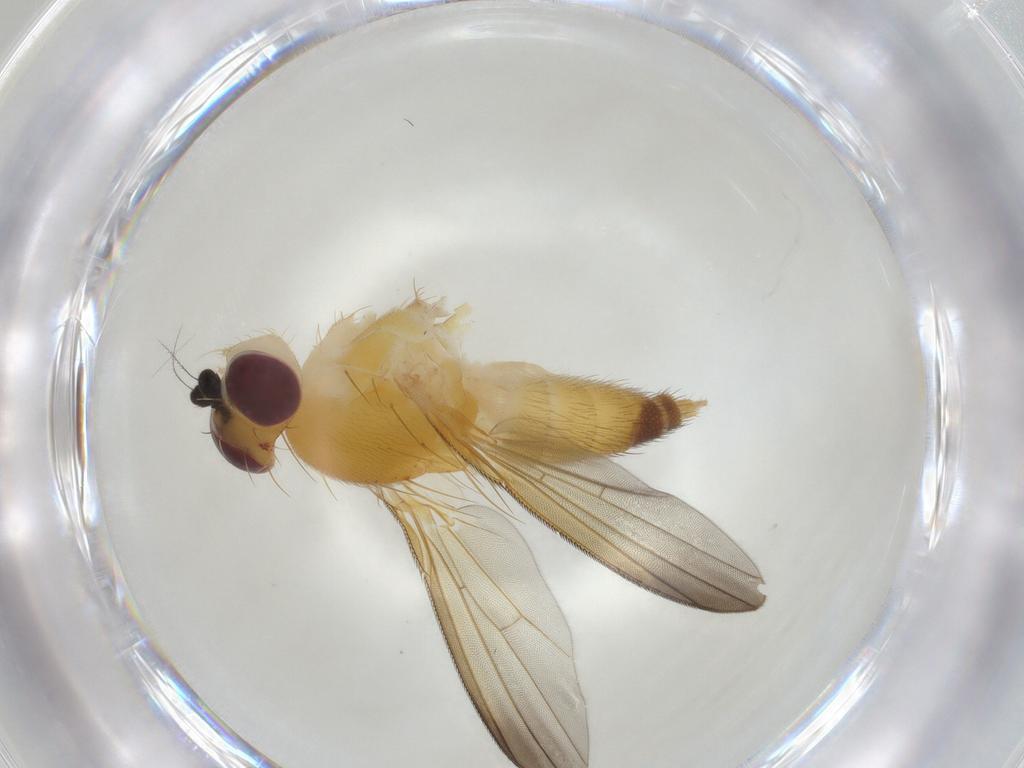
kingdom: Animalia
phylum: Arthropoda
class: Insecta
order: Diptera
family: Clusiidae
